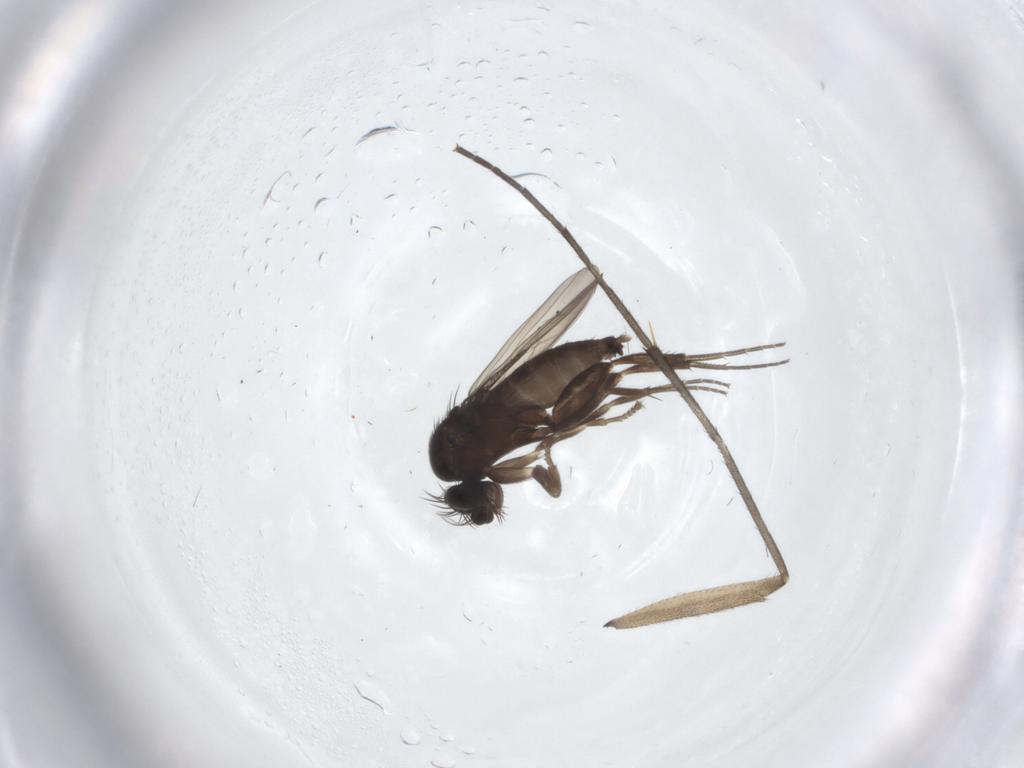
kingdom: Animalia
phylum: Arthropoda
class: Insecta
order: Diptera
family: Phoridae
